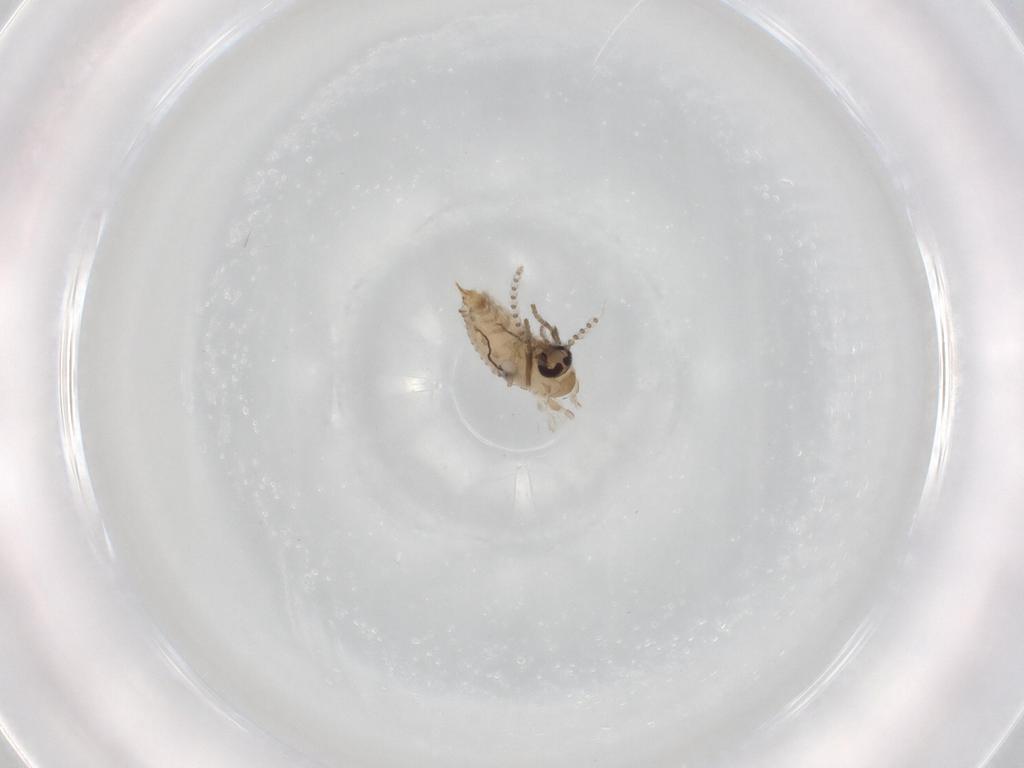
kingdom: Animalia
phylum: Arthropoda
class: Insecta
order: Diptera
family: Psychodidae
